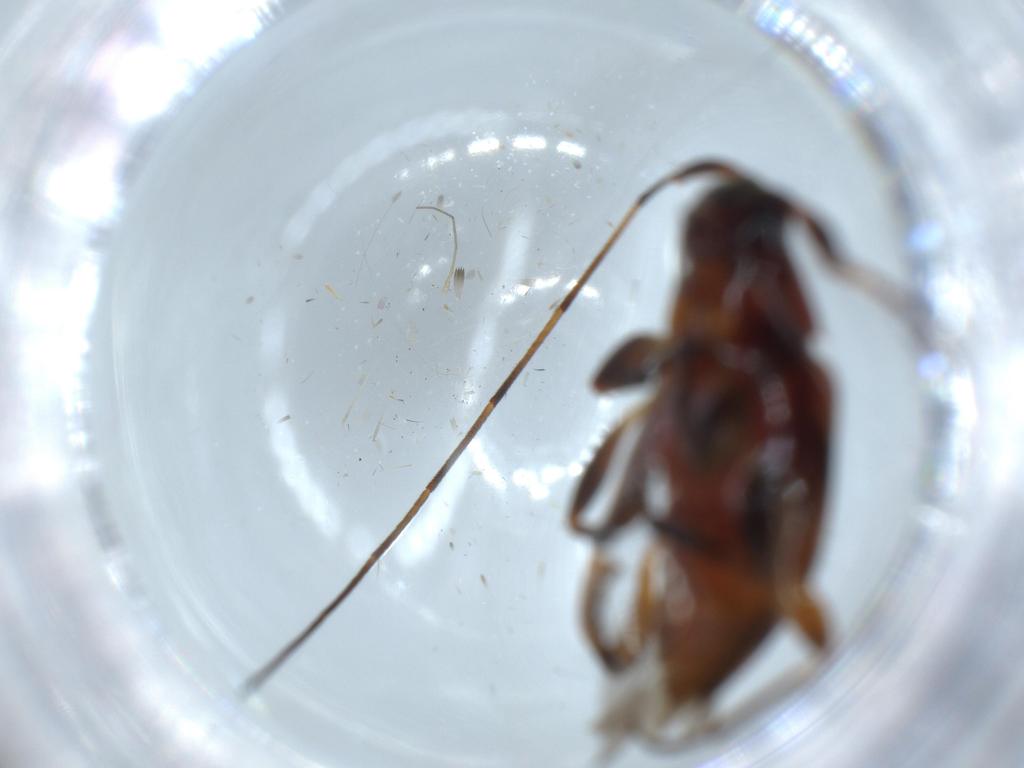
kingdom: Animalia
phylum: Arthropoda
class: Insecta
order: Coleoptera
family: Cerambycidae
